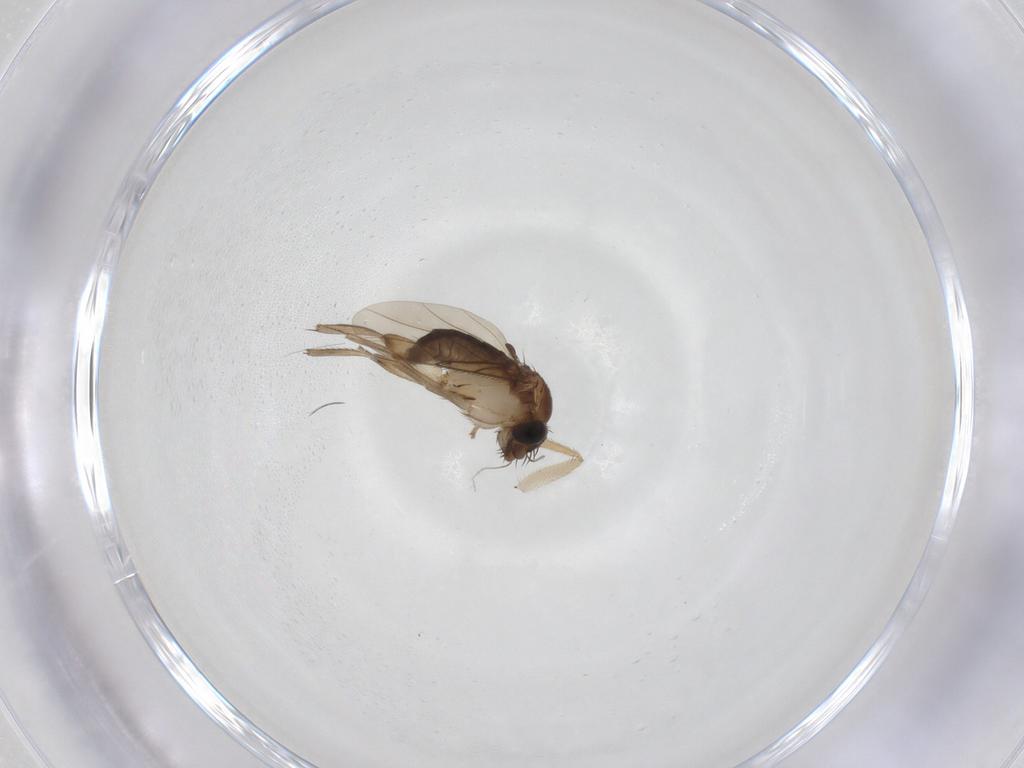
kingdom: Animalia
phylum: Arthropoda
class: Insecta
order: Diptera
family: Phoridae
